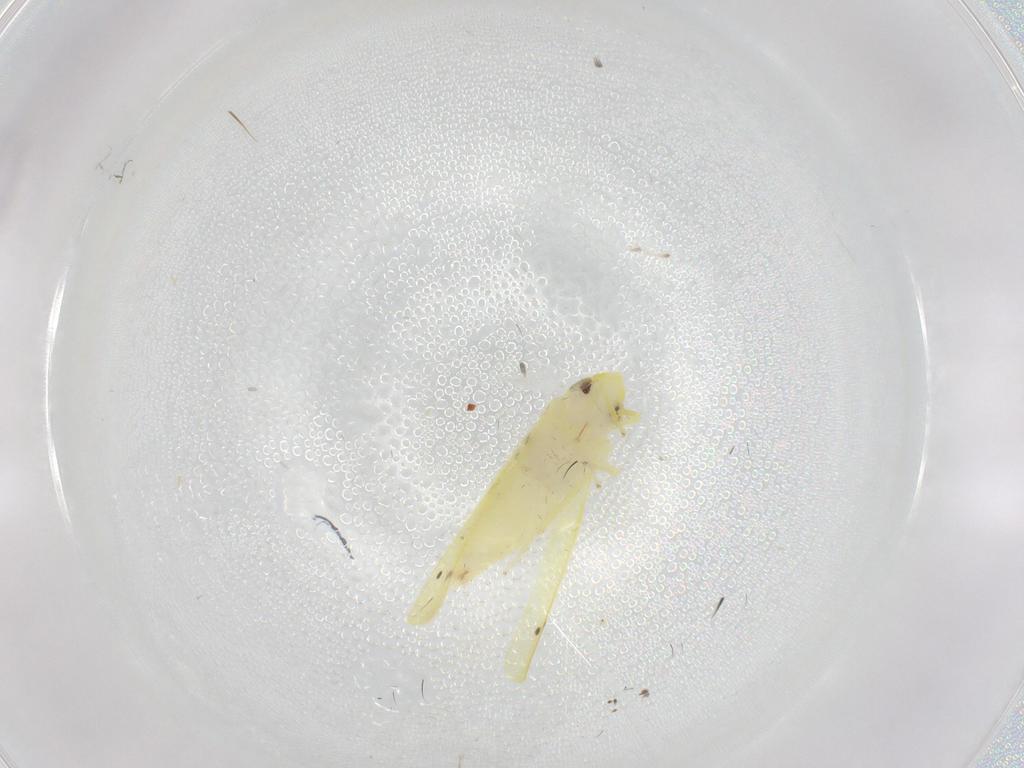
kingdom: Animalia
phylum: Arthropoda
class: Insecta
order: Hemiptera
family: Cicadellidae
